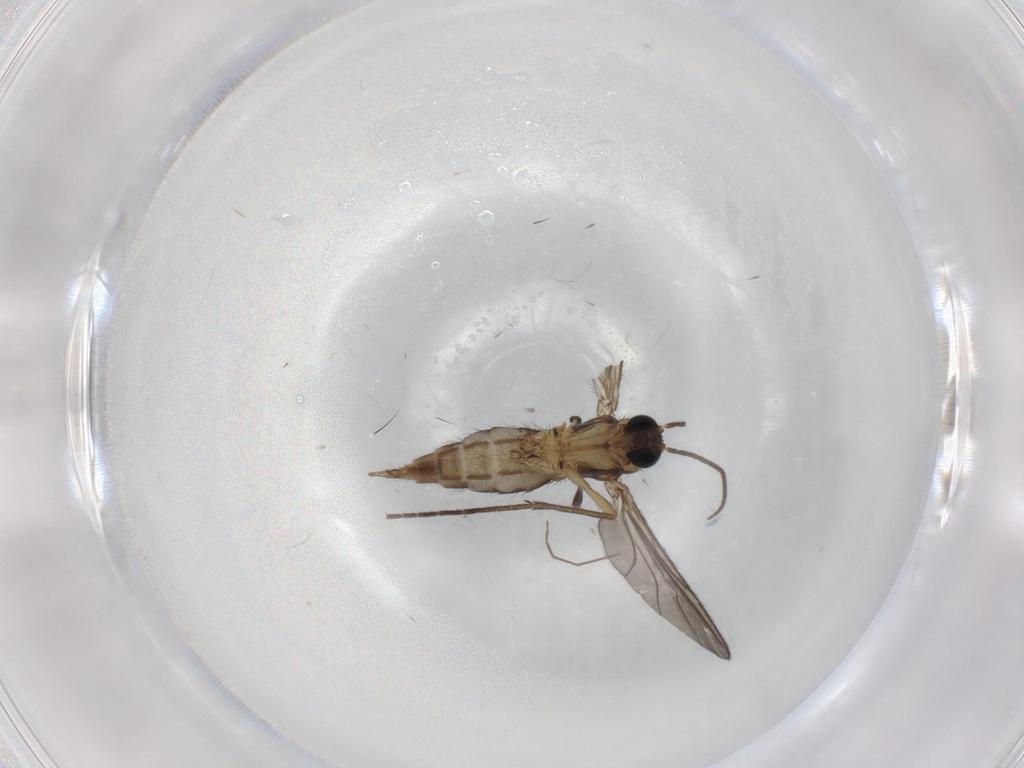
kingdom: Animalia
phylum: Arthropoda
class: Insecta
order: Diptera
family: Sciaridae
